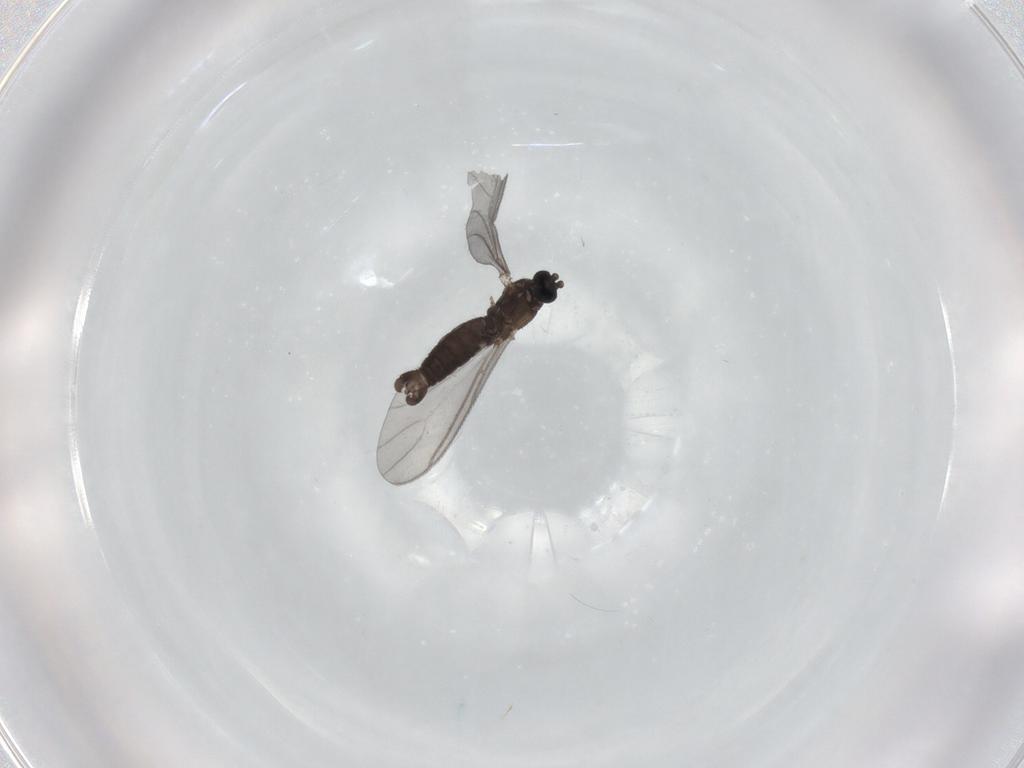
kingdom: Animalia
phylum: Arthropoda
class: Insecta
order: Diptera
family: Sciaridae
